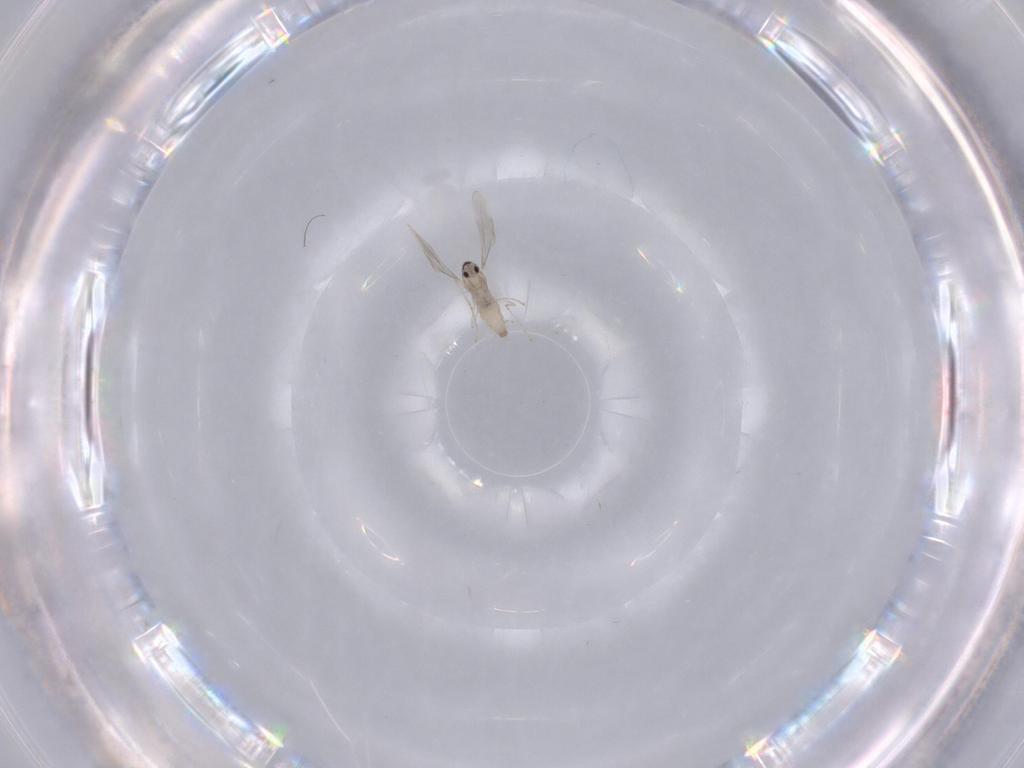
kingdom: Animalia
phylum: Arthropoda
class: Insecta
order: Diptera
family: Cecidomyiidae
